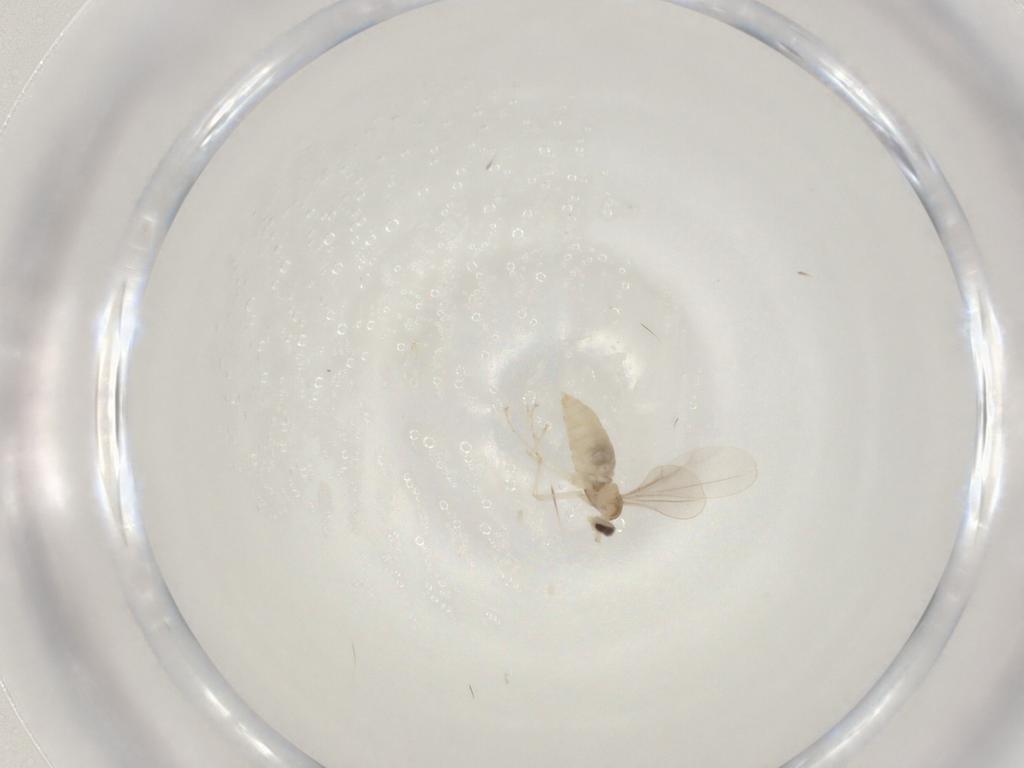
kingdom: Animalia
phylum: Arthropoda
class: Insecta
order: Diptera
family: Cecidomyiidae
